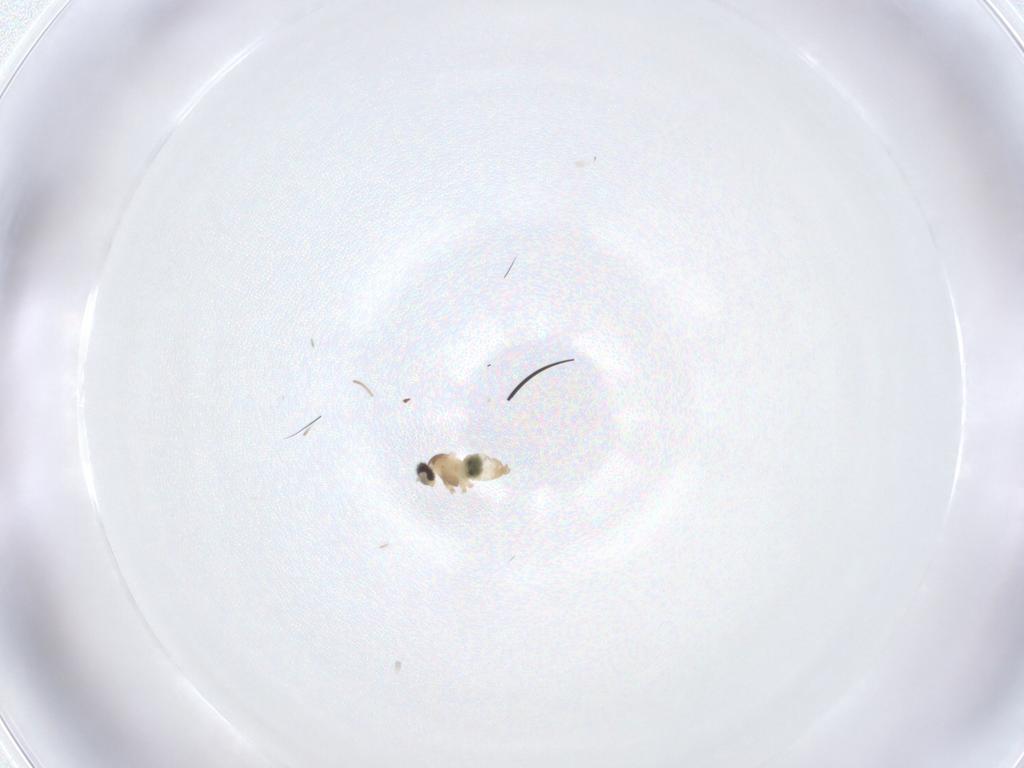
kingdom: Animalia
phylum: Arthropoda
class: Insecta
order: Diptera
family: Cecidomyiidae
